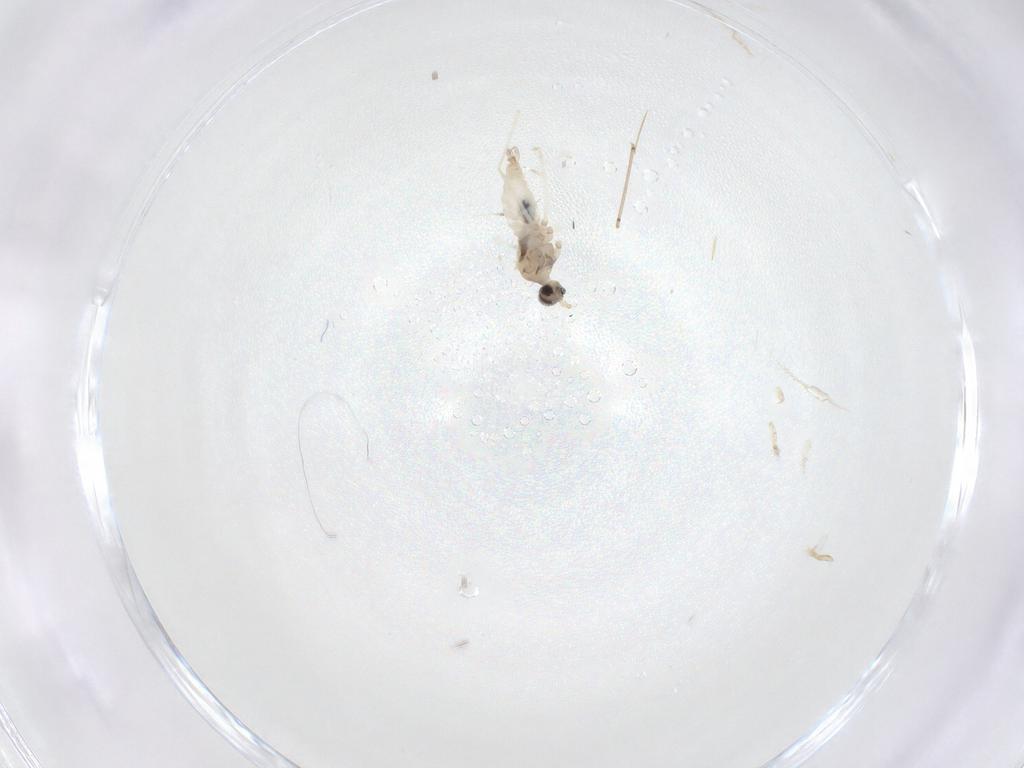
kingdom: Animalia
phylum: Arthropoda
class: Insecta
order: Diptera
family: Cecidomyiidae
